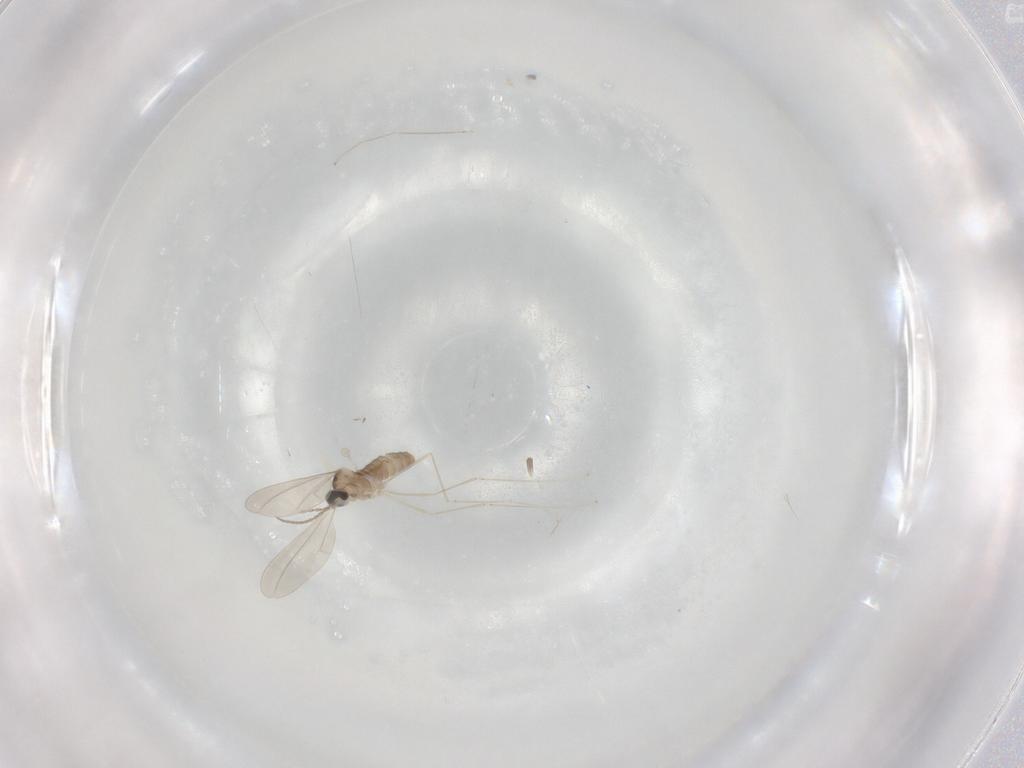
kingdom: Animalia
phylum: Arthropoda
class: Insecta
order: Diptera
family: Cecidomyiidae
